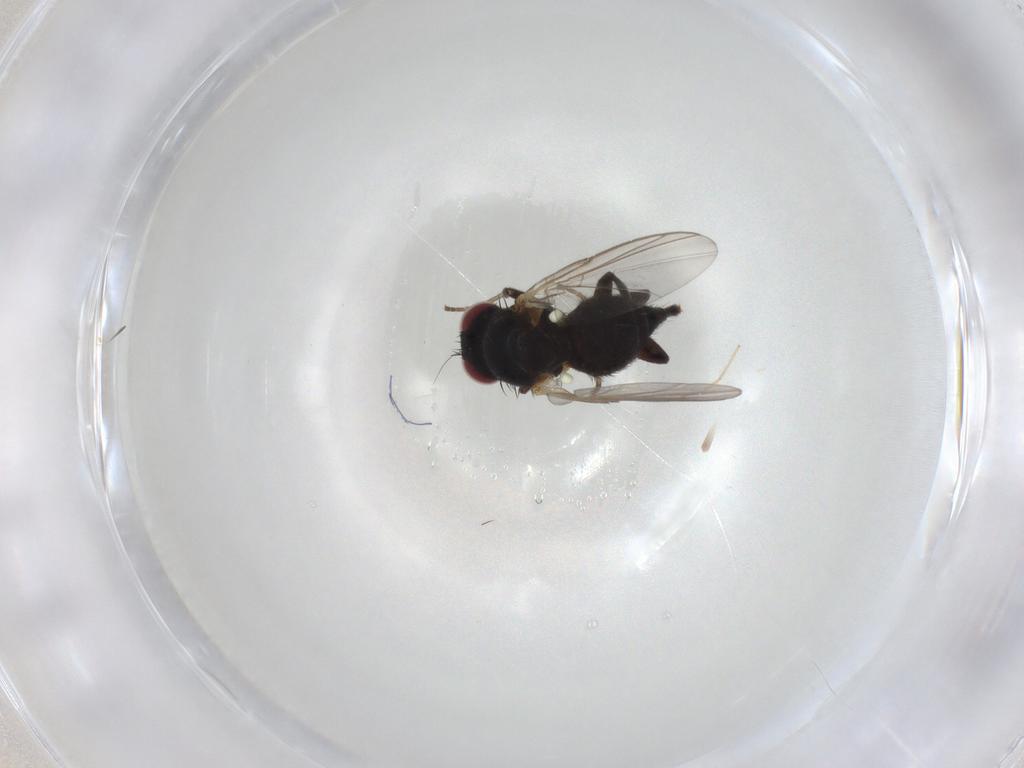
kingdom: Animalia
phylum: Arthropoda
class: Insecta
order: Diptera
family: Agromyzidae
